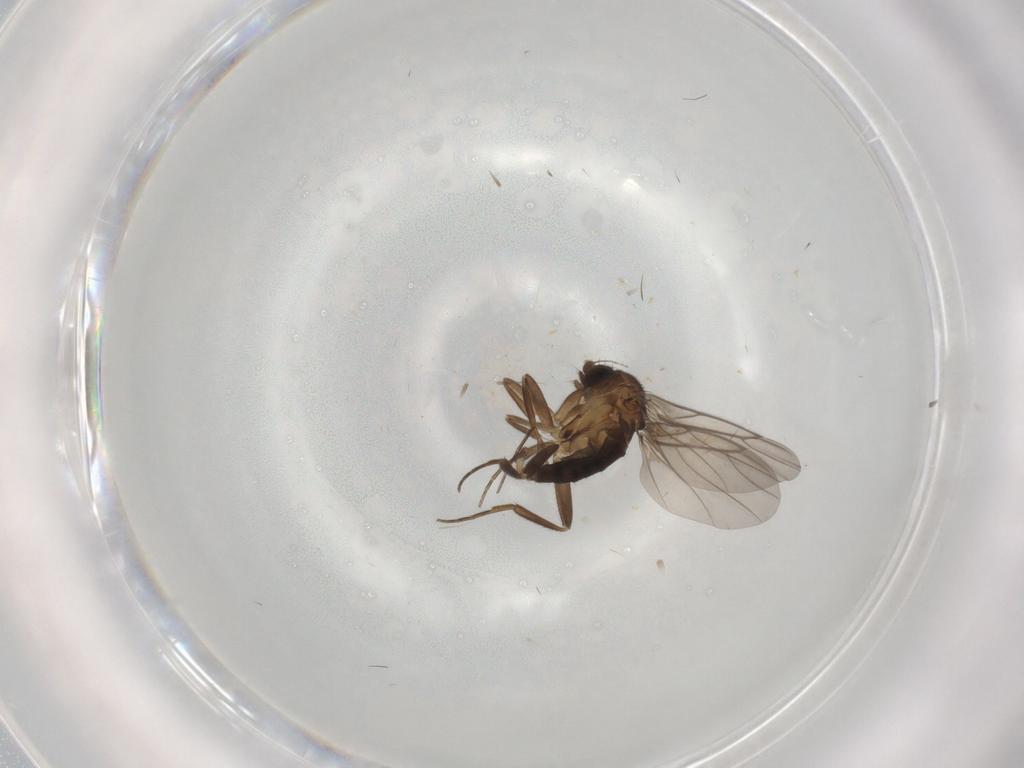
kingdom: Animalia
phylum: Arthropoda
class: Insecta
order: Diptera
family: Phoridae
